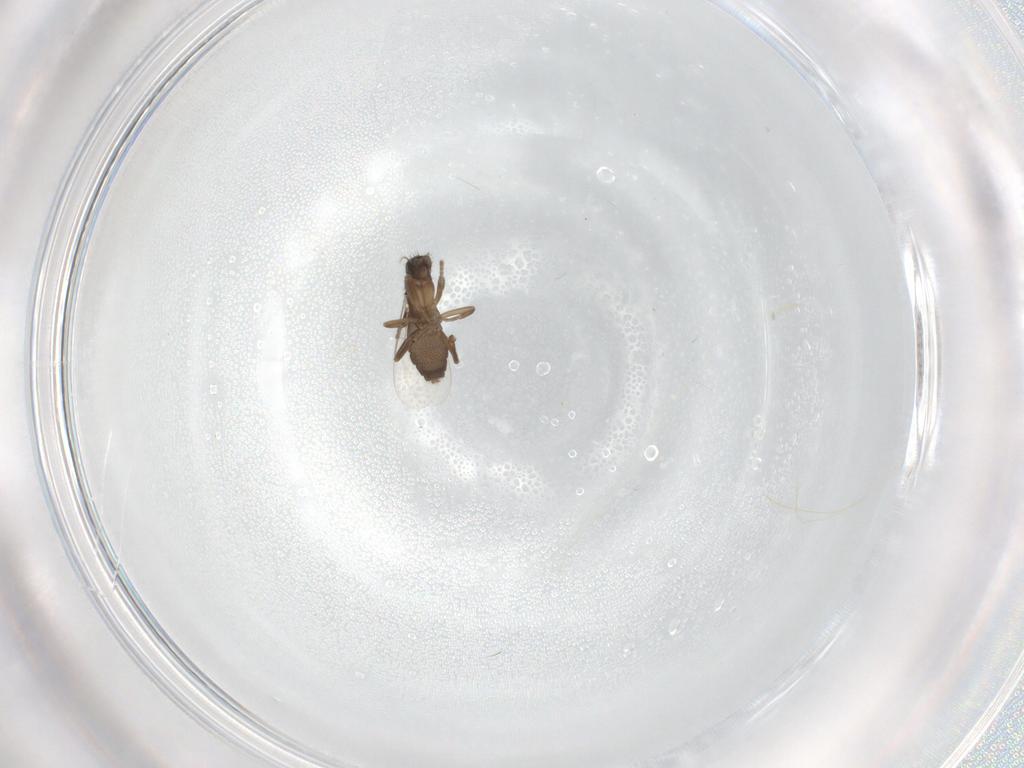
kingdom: Animalia
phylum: Arthropoda
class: Insecta
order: Diptera
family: Phoridae
